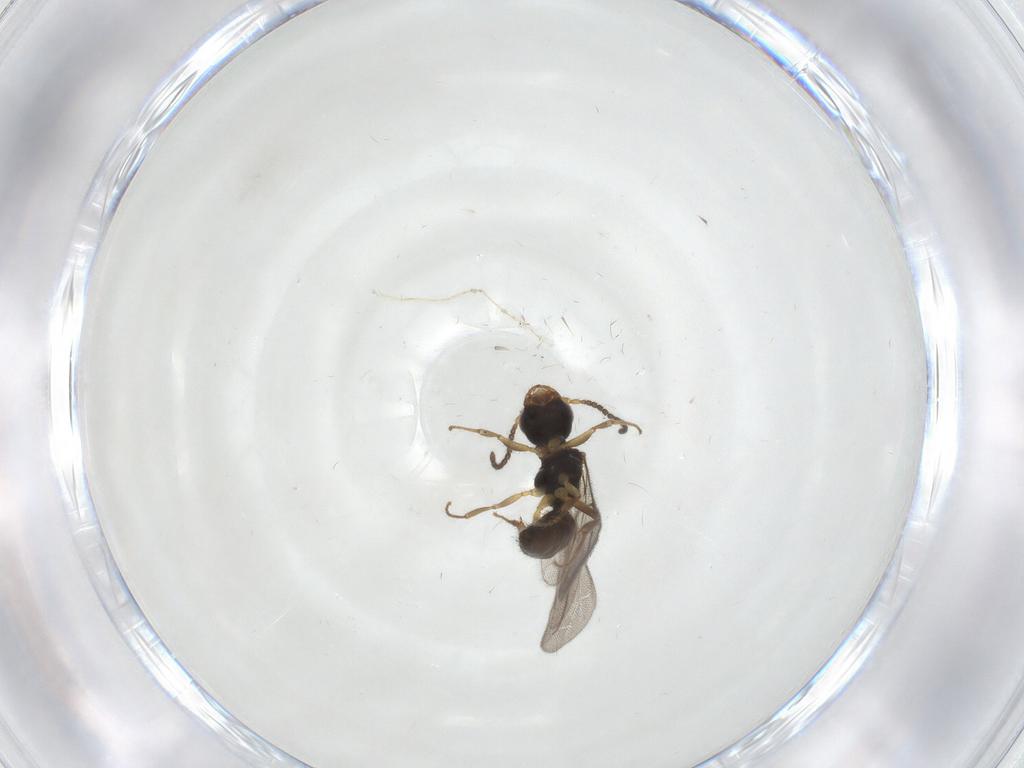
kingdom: Animalia
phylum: Arthropoda
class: Insecta
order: Hymenoptera
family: Bethylidae
